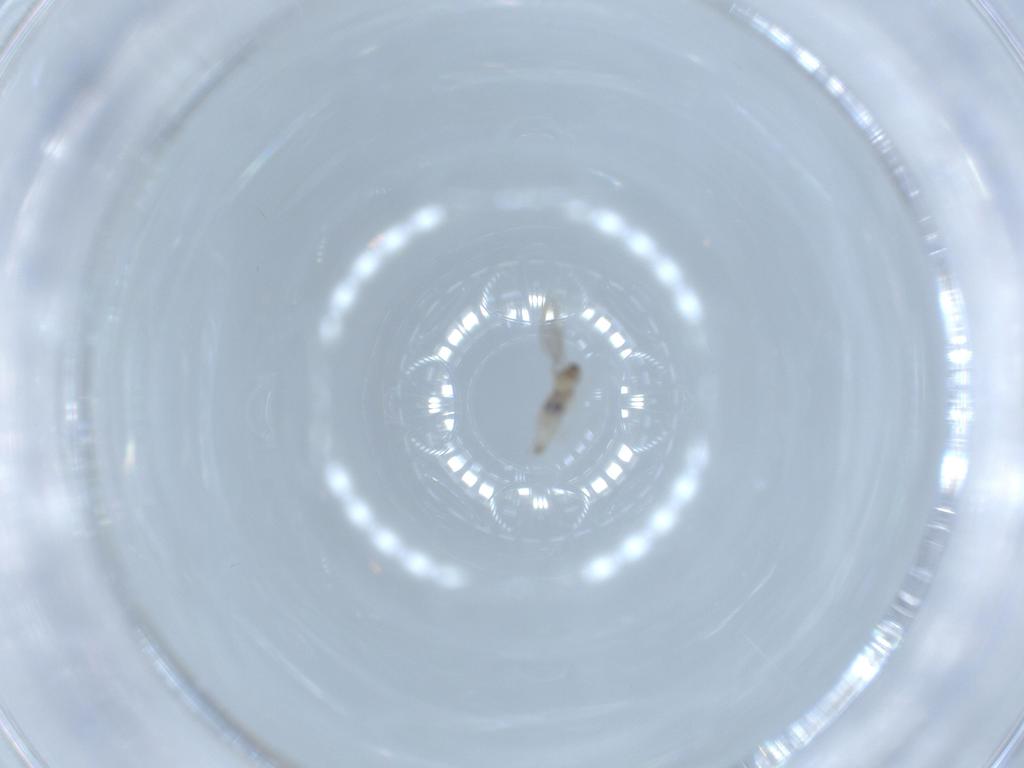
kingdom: Animalia
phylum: Arthropoda
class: Insecta
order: Diptera
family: Cecidomyiidae
